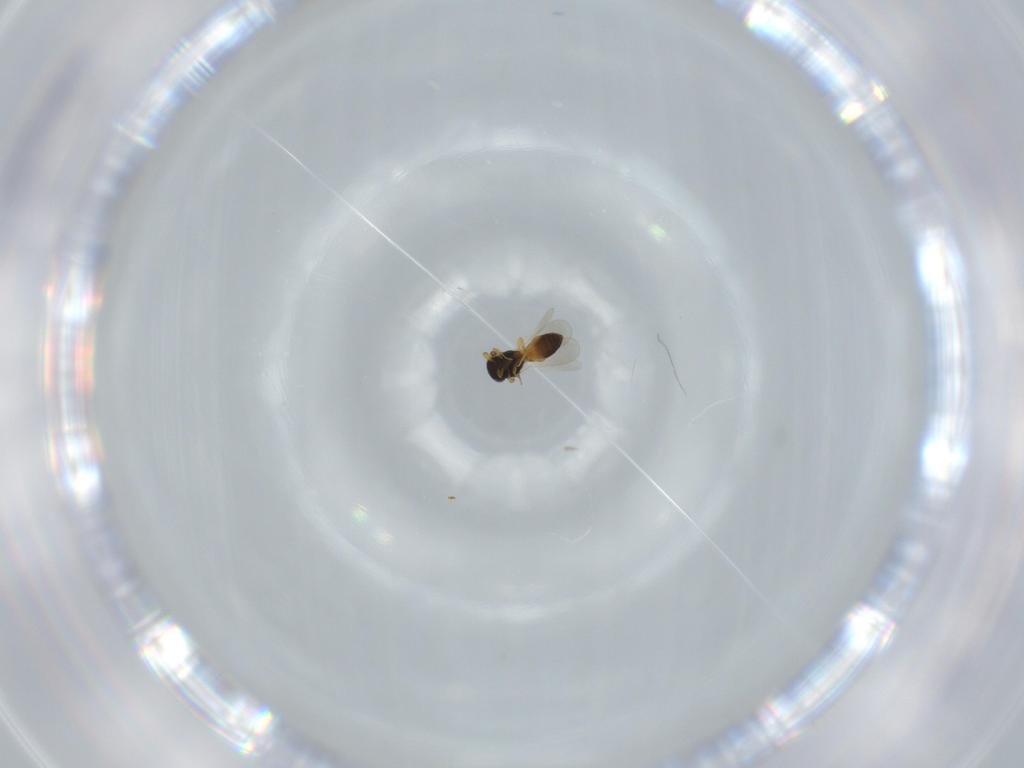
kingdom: Animalia
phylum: Arthropoda
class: Insecta
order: Hymenoptera
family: Platygastridae
